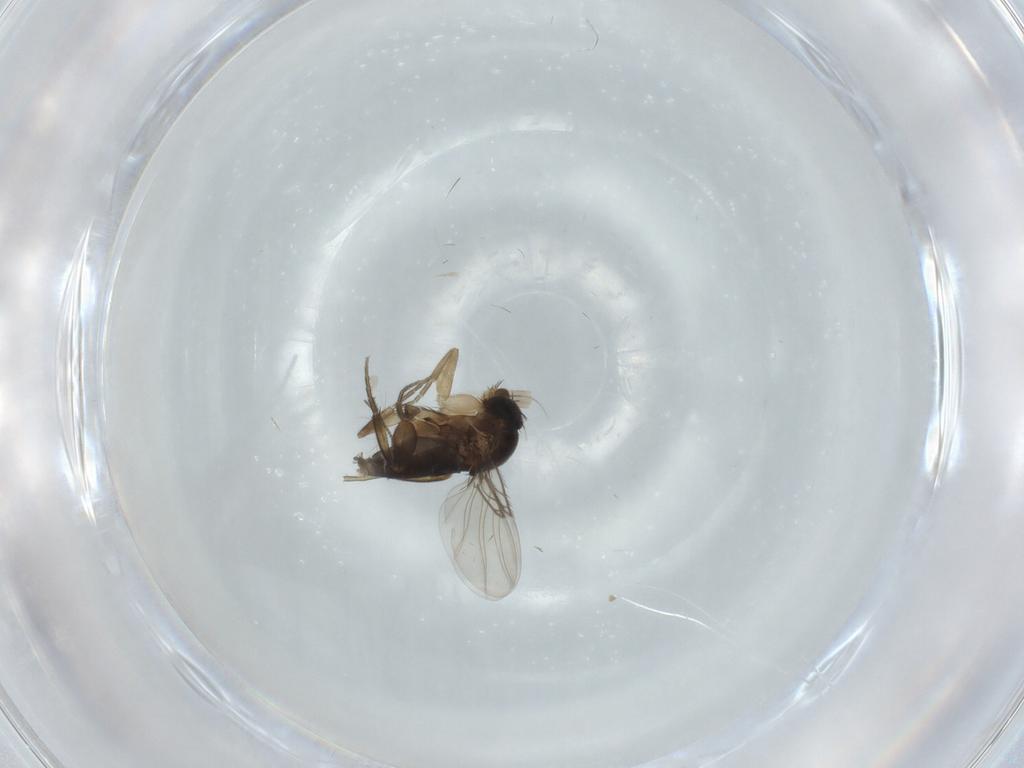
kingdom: Animalia
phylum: Arthropoda
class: Insecta
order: Diptera
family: Phoridae
